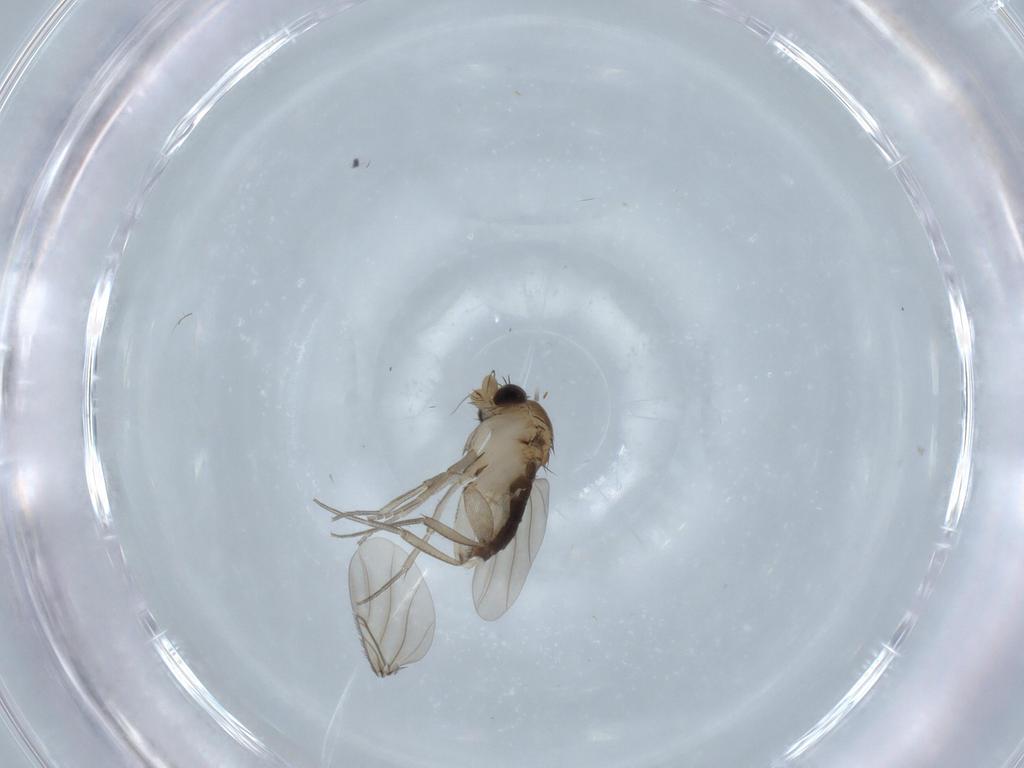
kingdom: Animalia
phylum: Arthropoda
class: Insecta
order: Diptera
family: Phoridae
